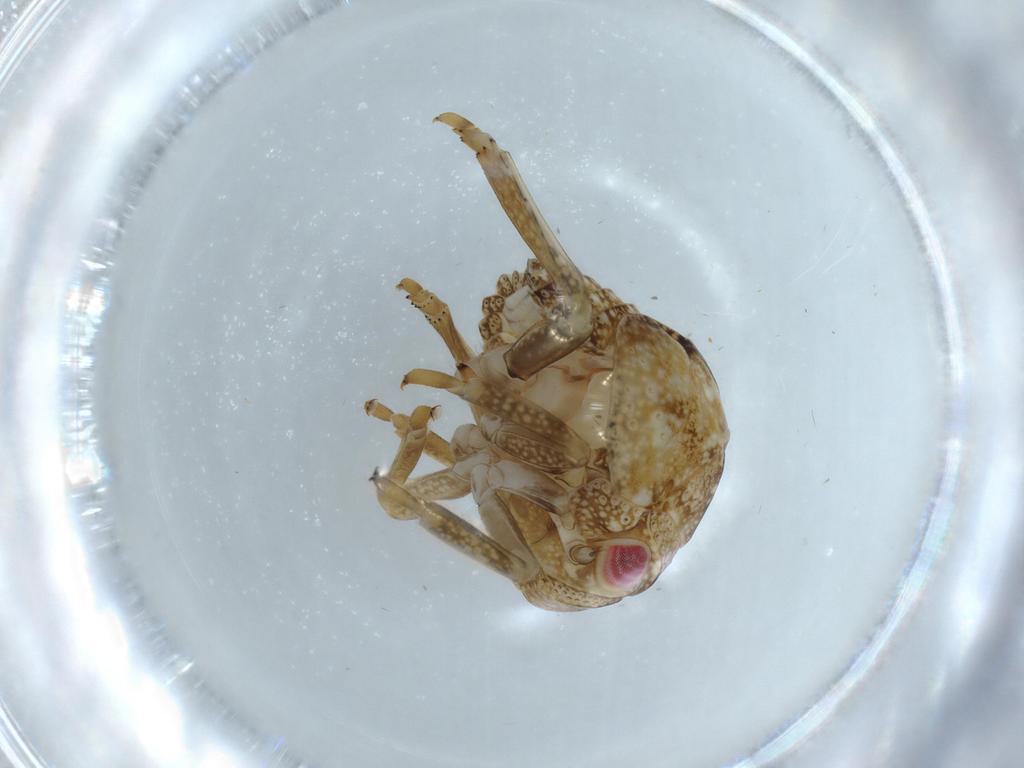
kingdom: Animalia
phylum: Arthropoda
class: Insecta
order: Hemiptera
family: Acanaloniidae
